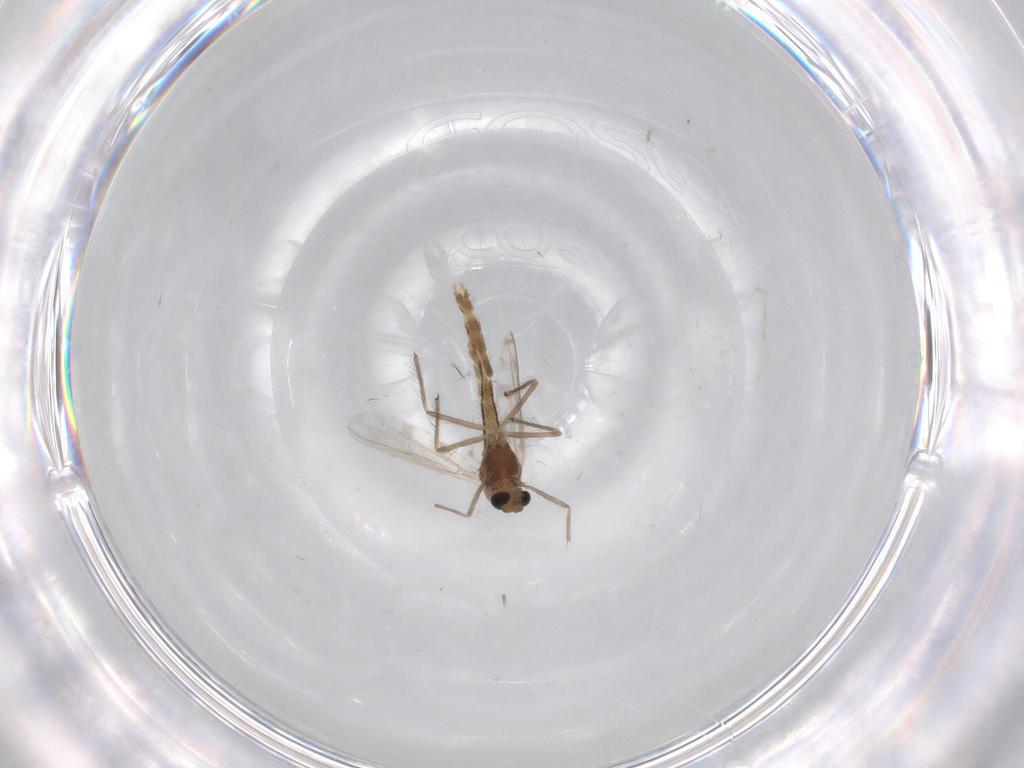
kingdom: Animalia
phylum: Arthropoda
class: Insecta
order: Diptera
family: Chironomidae
